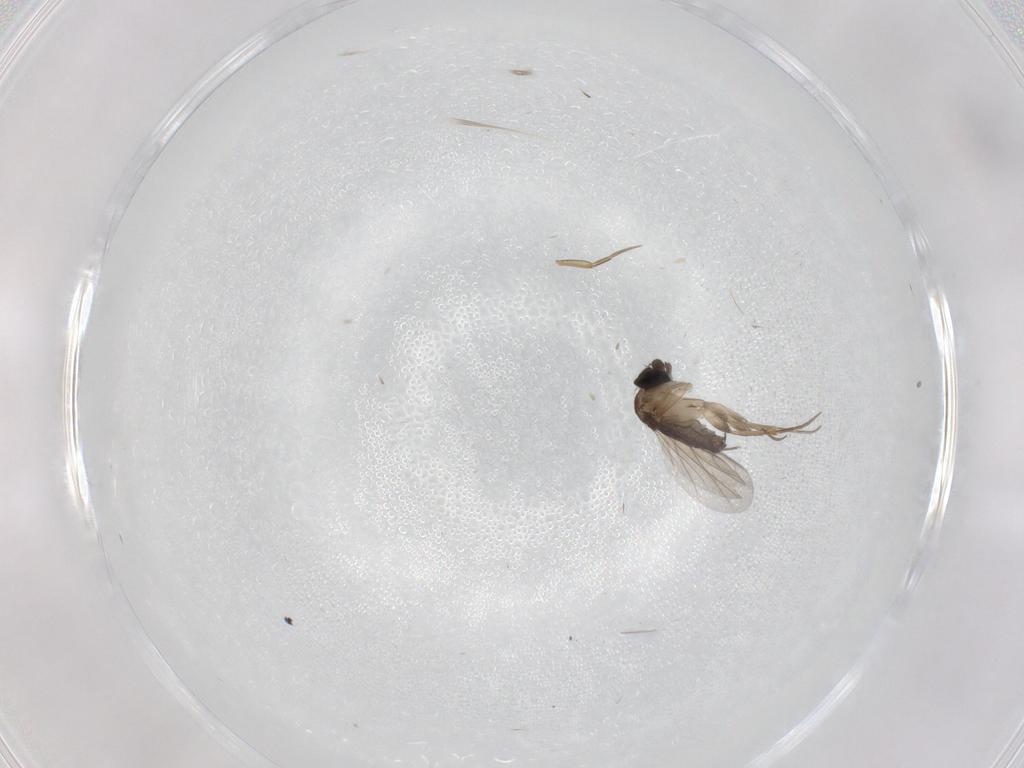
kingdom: Animalia
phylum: Arthropoda
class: Insecta
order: Diptera
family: Phoridae
